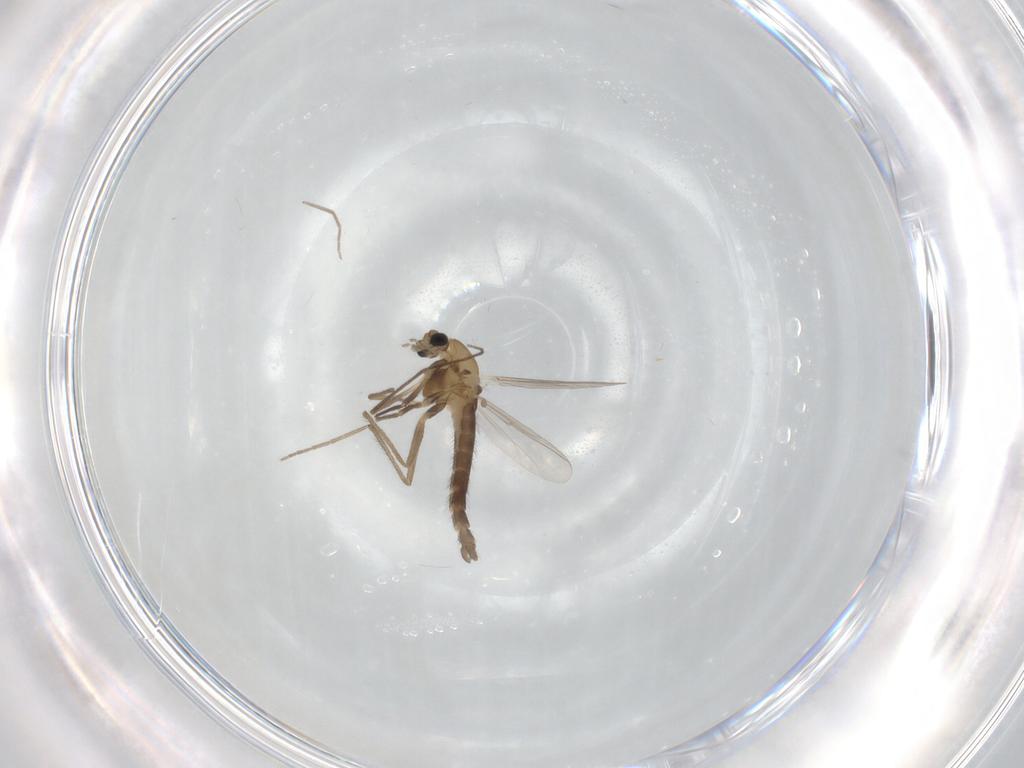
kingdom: Animalia
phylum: Arthropoda
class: Insecta
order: Diptera
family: Chironomidae
